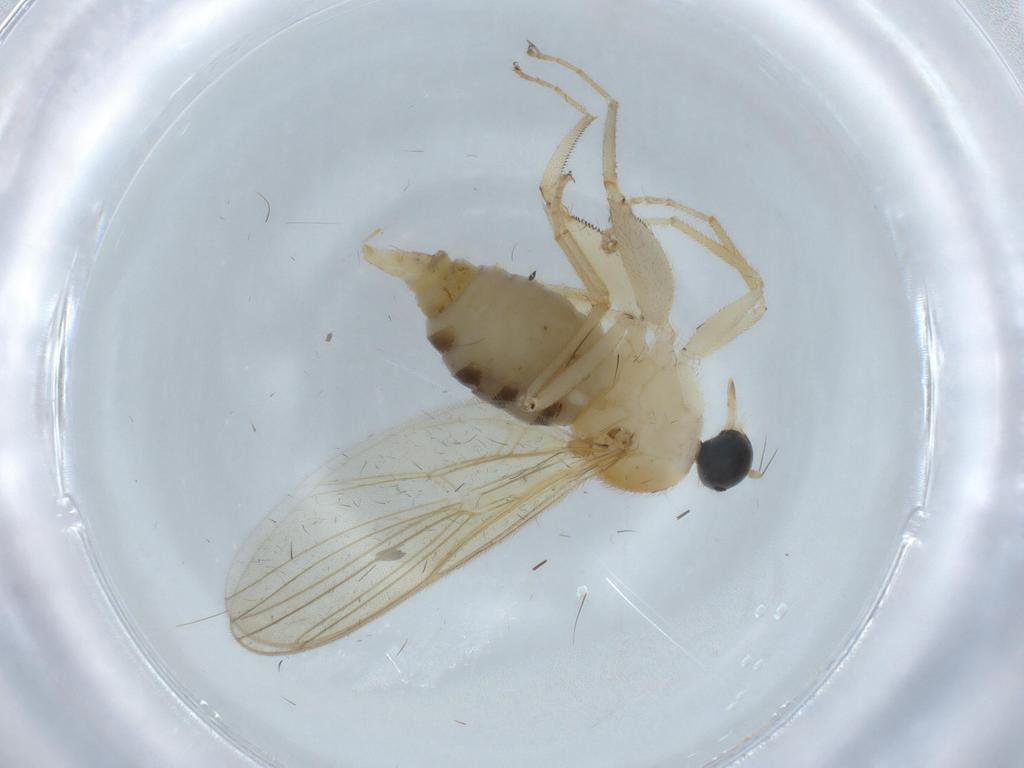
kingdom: Animalia
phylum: Arthropoda
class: Insecta
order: Diptera
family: Hybotidae
